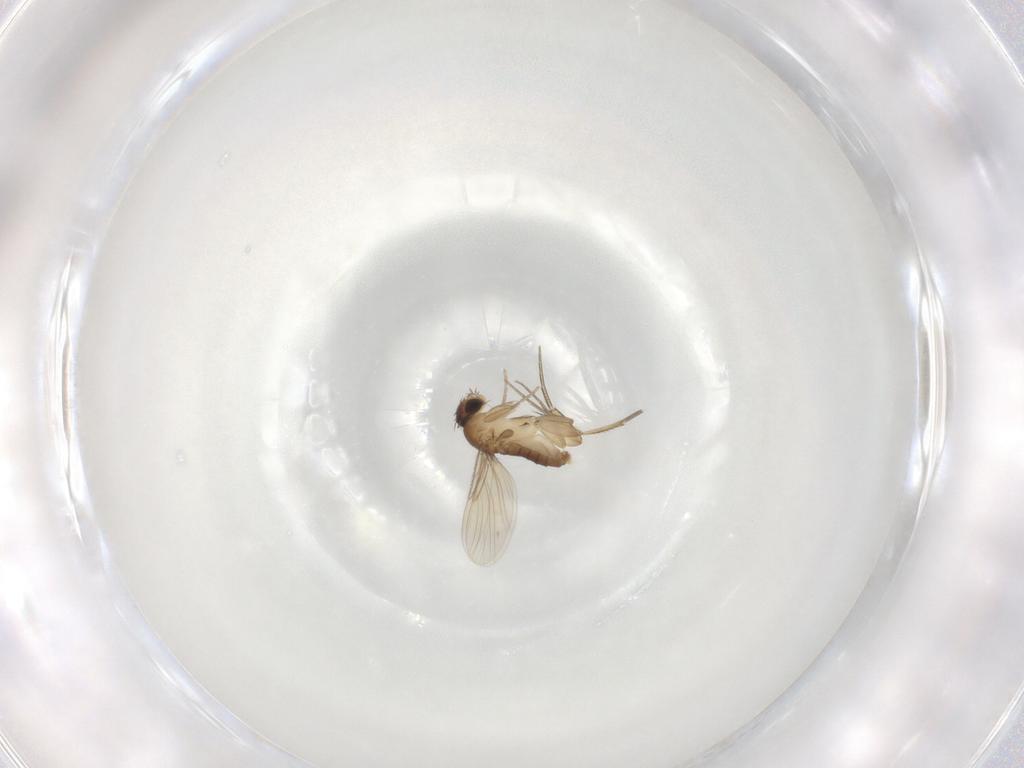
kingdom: Animalia
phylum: Arthropoda
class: Insecta
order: Diptera
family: Phoridae
